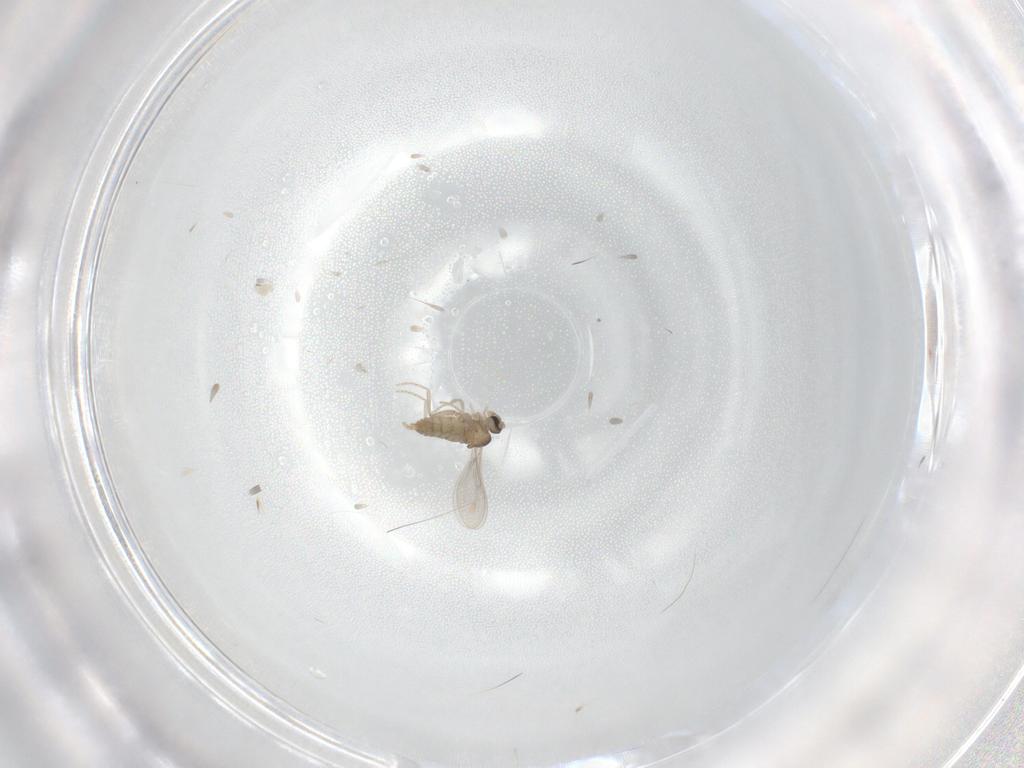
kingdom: Animalia
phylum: Arthropoda
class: Insecta
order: Diptera
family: Cecidomyiidae
